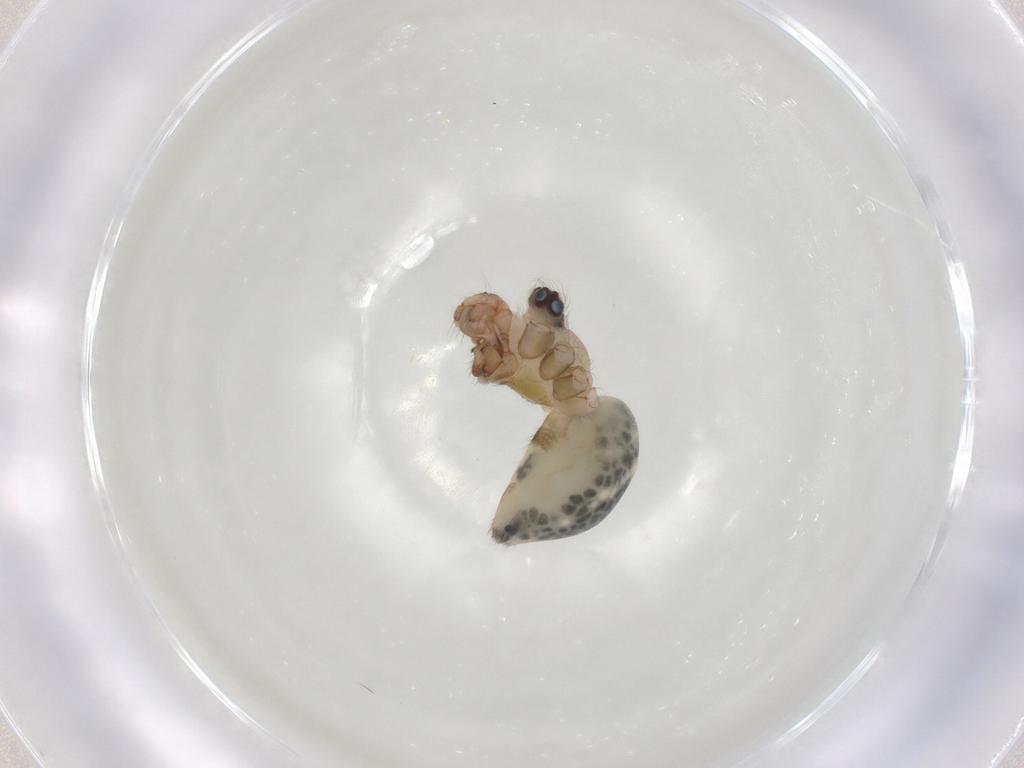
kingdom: Animalia
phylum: Arthropoda
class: Arachnida
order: Araneae
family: Pholcidae
